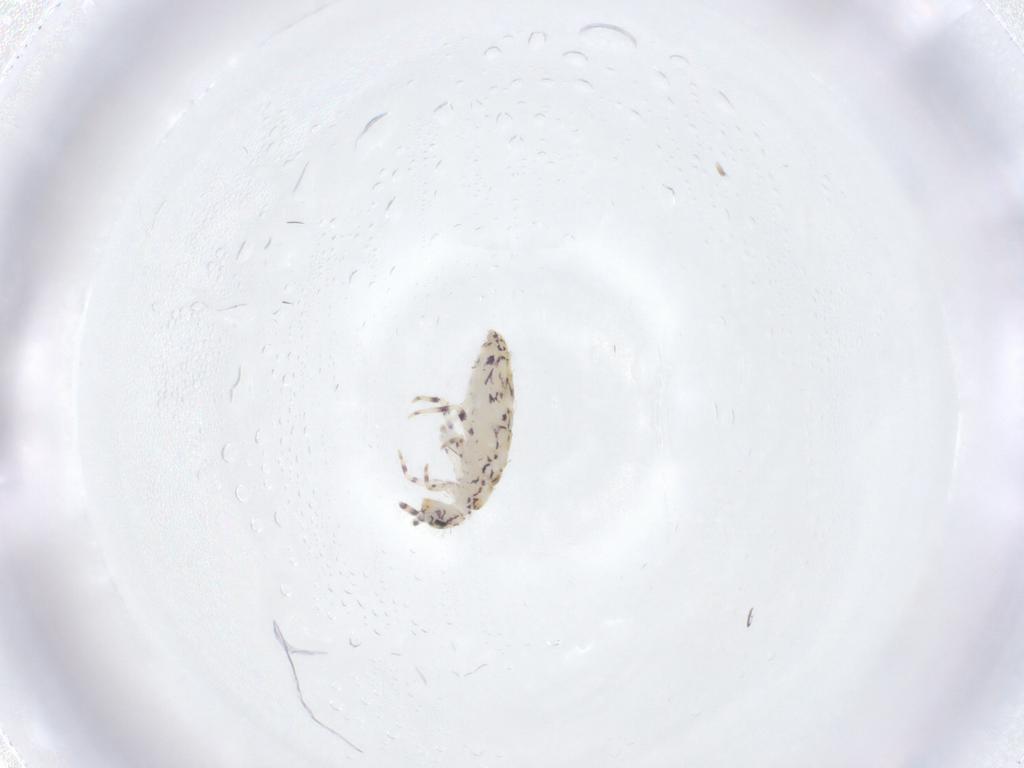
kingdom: Animalia
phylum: Arthropoda
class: Collembola
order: Entomobryomorpha
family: Entomobryidae
